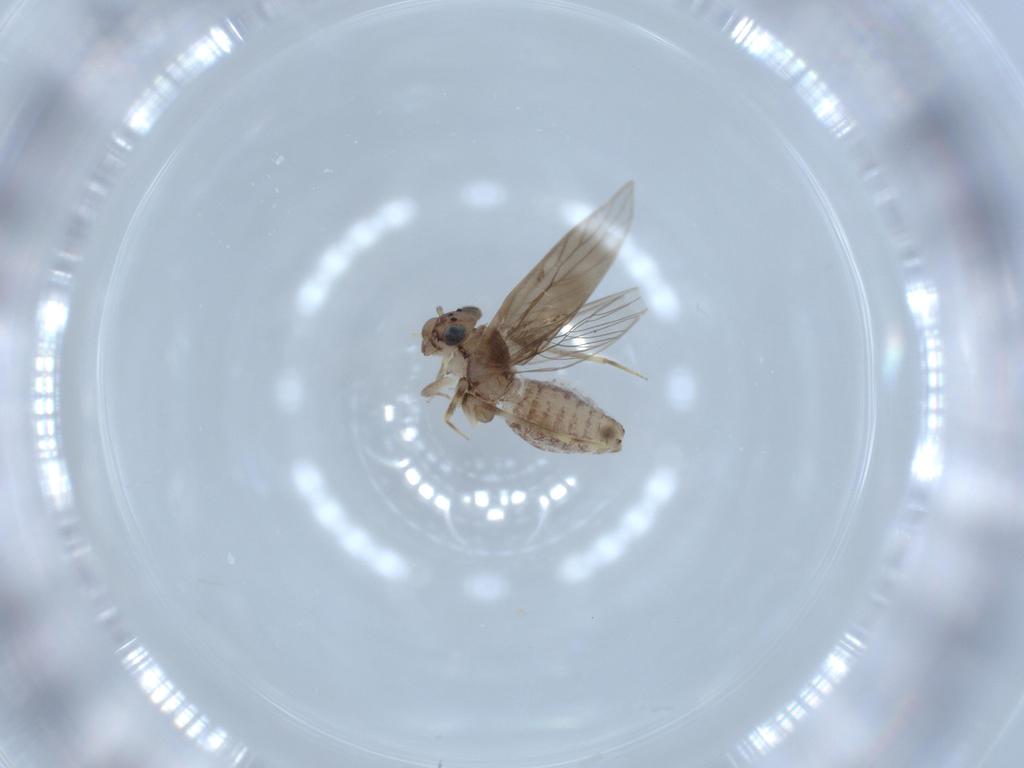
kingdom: Animalia
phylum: Arthropoda
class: Insecta
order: Psocodea
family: Lepidopsocidae
